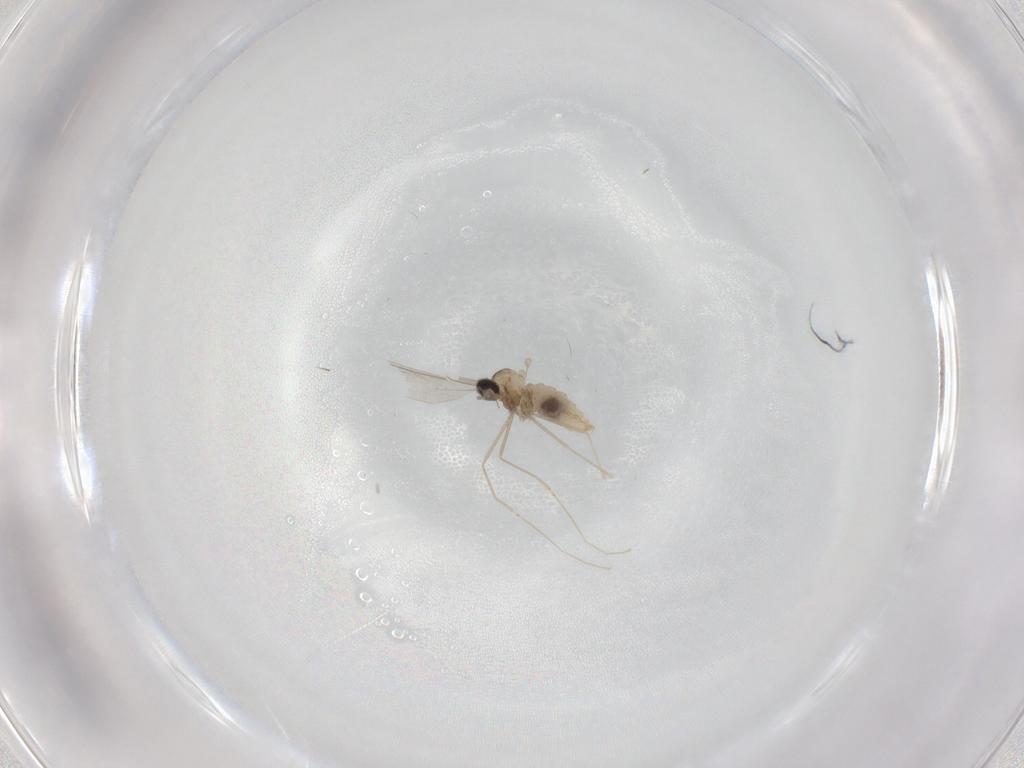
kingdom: Animalia
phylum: Arthropoda
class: Insecta
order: Diptera
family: Cecidomyiidae
